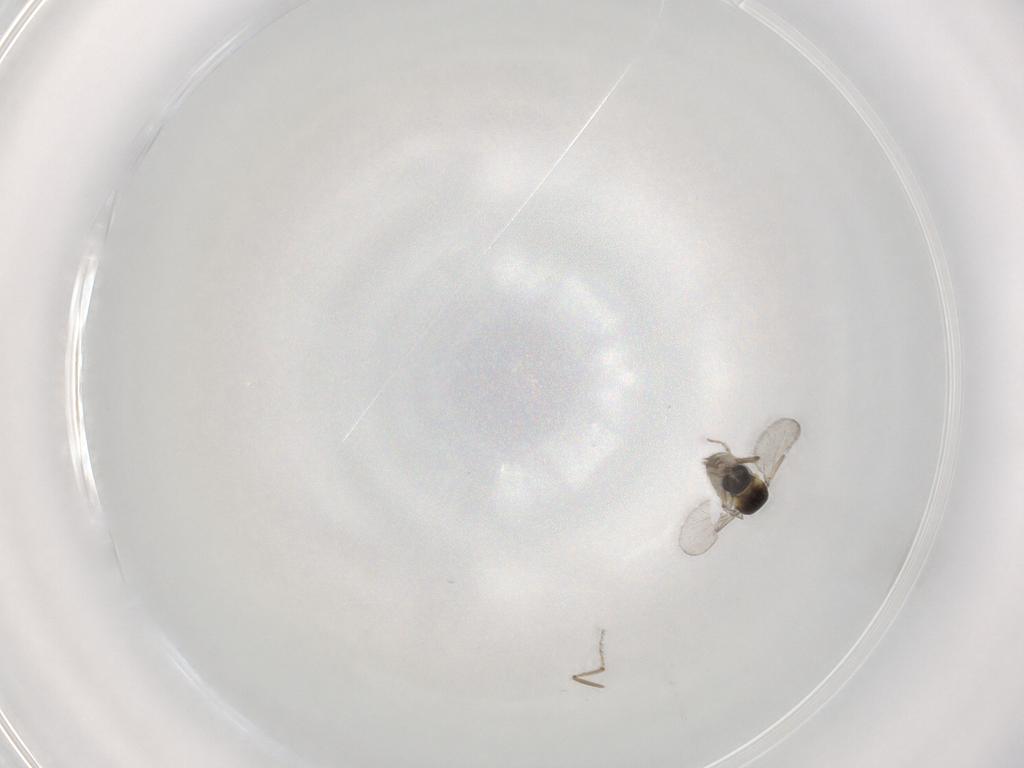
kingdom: Animalia
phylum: Arthropoda
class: Insecta
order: Diptera
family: Ceratopogonidae
